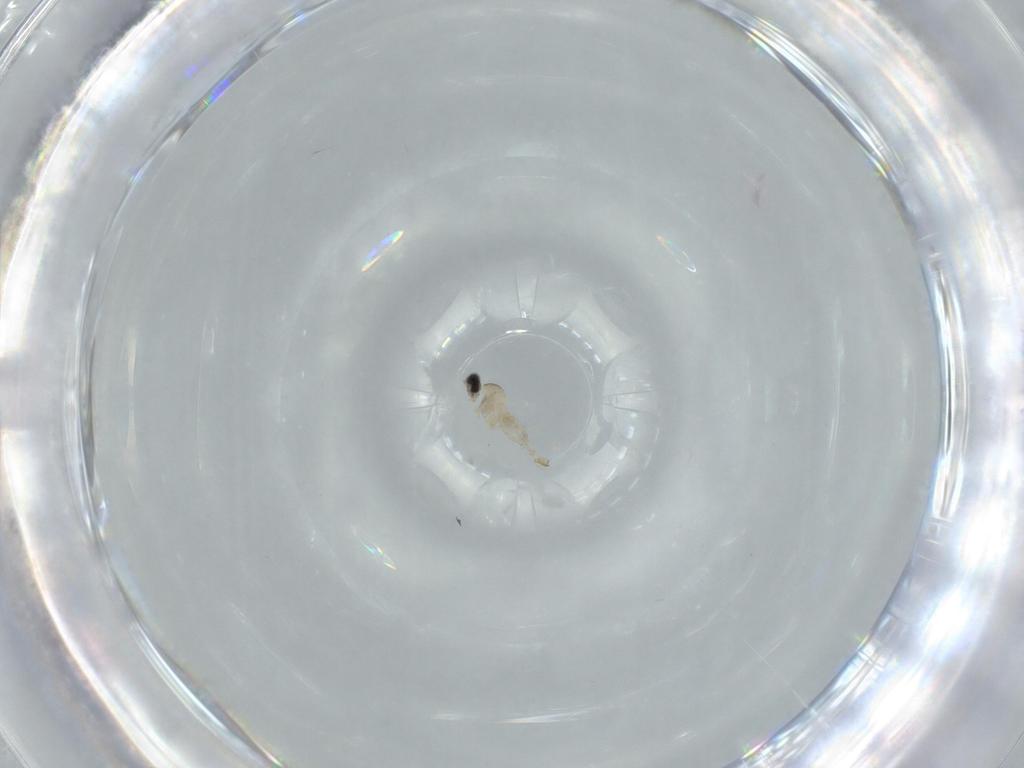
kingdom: Animalia
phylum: Arthropoda
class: Insecta
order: Diptera
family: Cecidomyiidae
